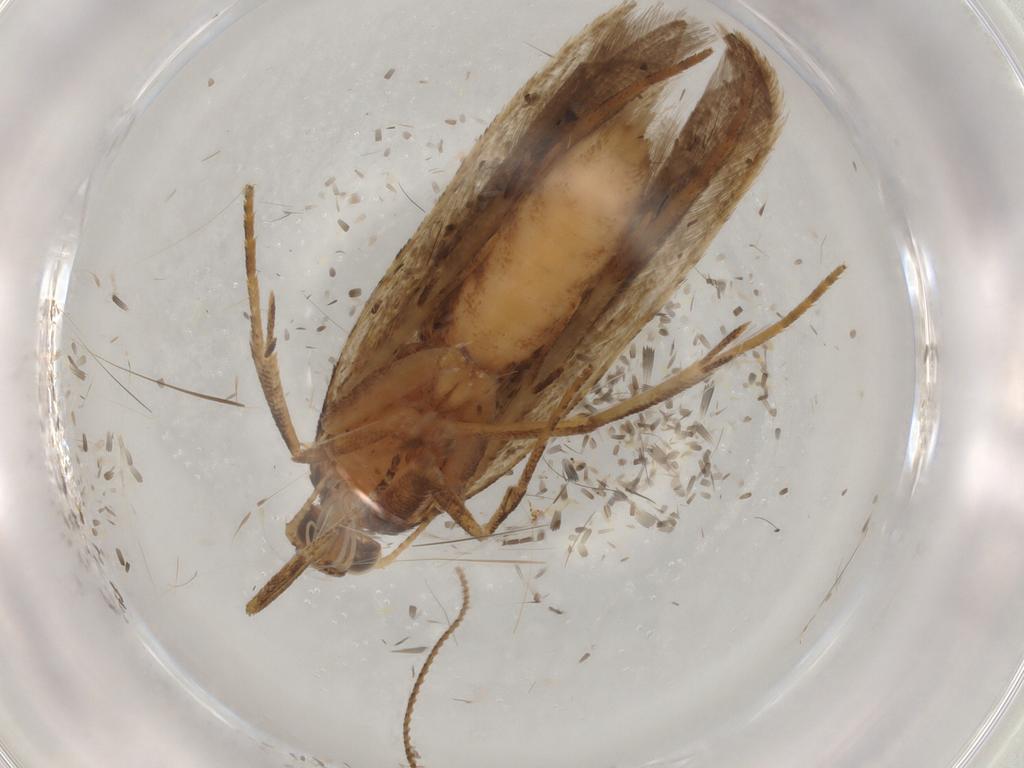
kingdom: Animalia
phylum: Arthropoda
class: Insecta
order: Lepidoptera
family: Gelechiidae
